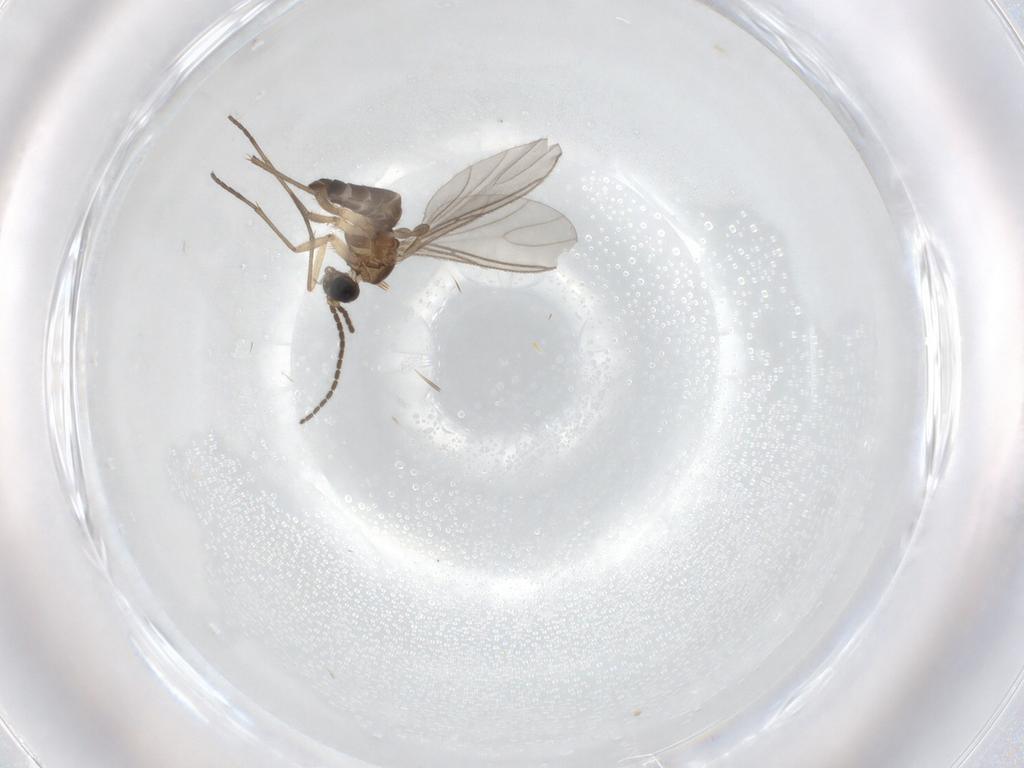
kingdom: Animalia
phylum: Arthropoda
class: Insecta
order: Diptera
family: Ceratopogonidae
